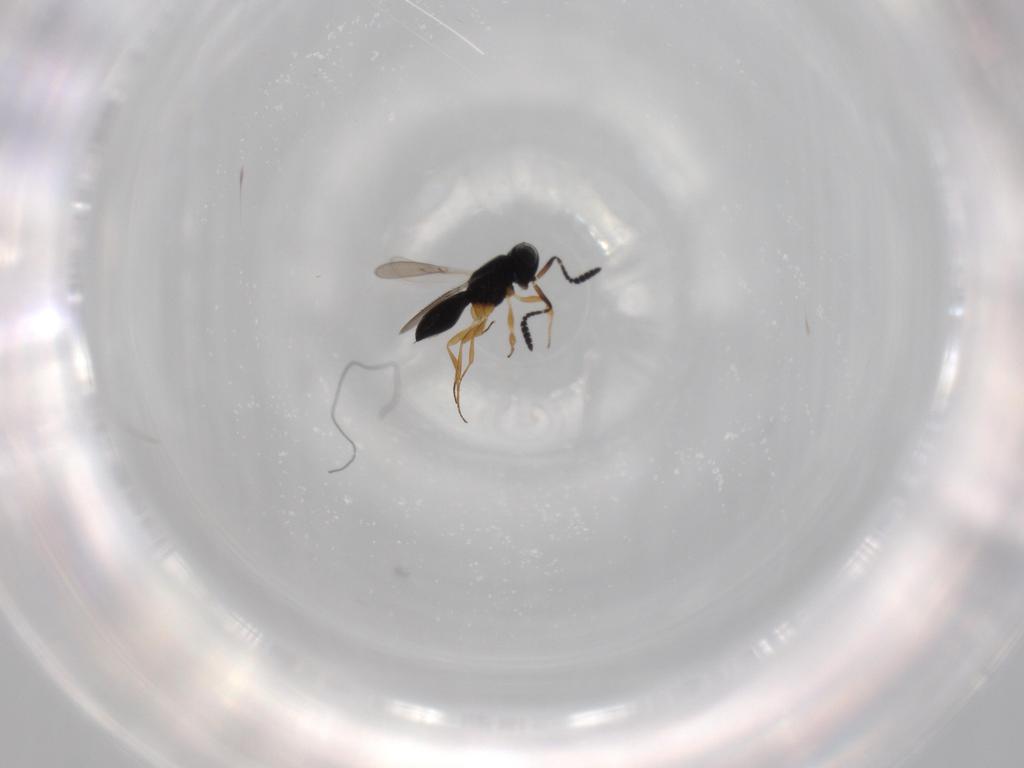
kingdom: Animalia
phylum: Arthropoda
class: Insecta
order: Hymenoptera
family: Scelionidae
